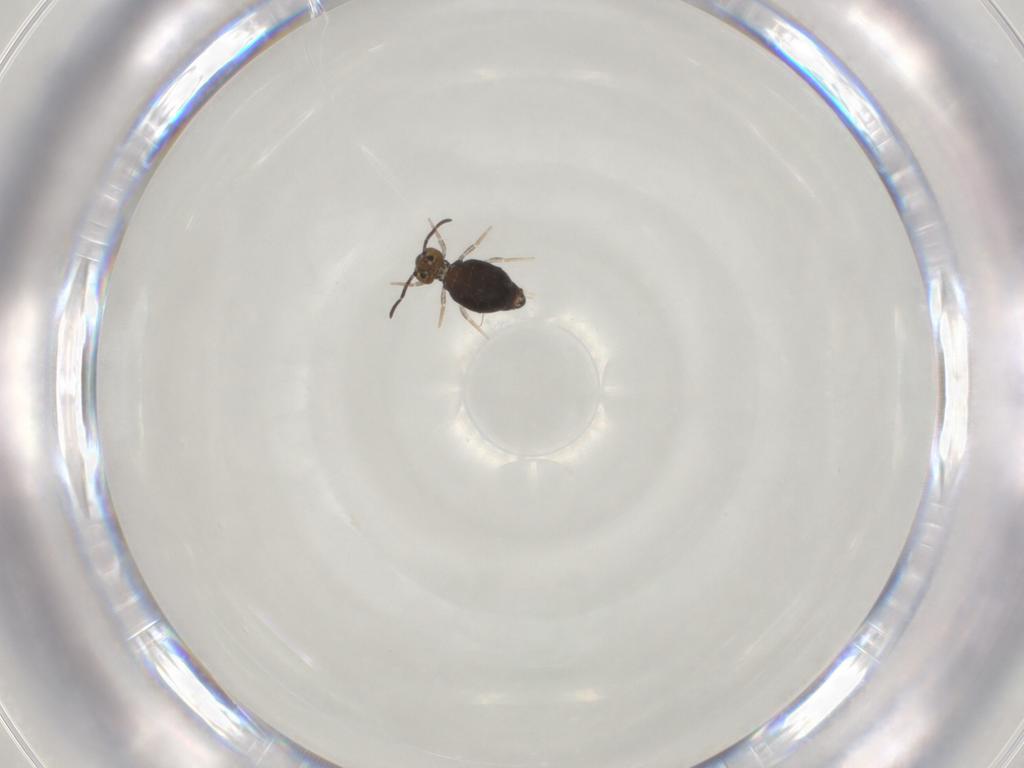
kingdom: Animalia
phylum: Arthropoda
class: Collembola
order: Symphypleona
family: Katiannidae
